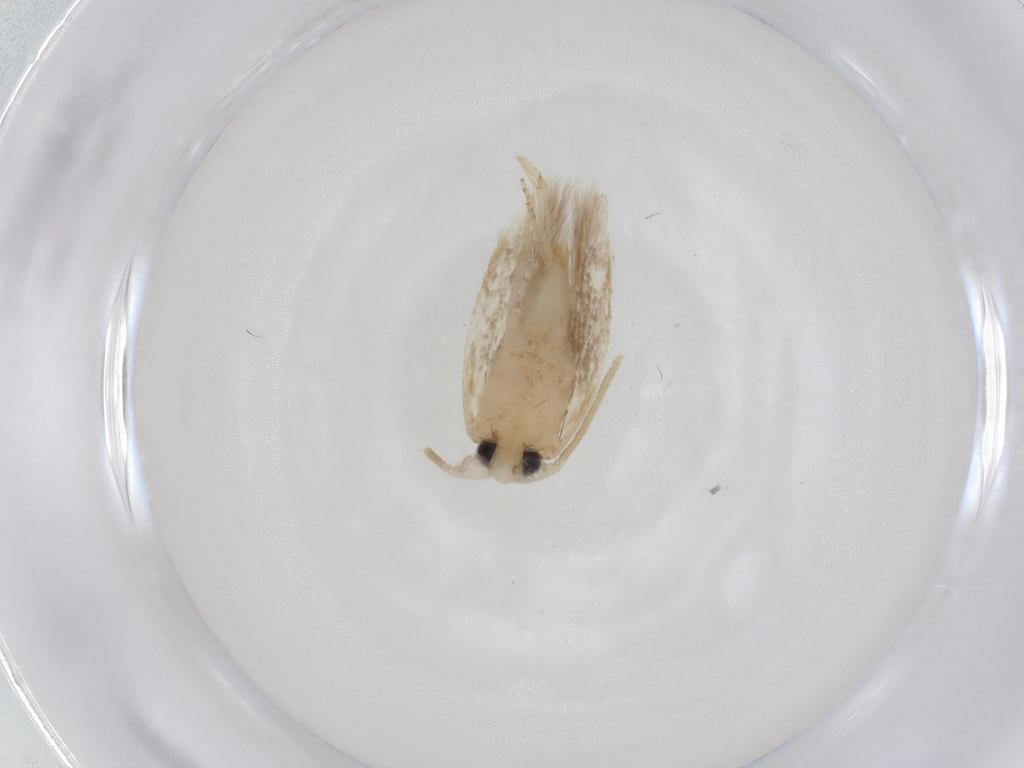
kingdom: Animalia
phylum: Arthropoda
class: Insecta
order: Lepidoptera
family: Opostegidae
